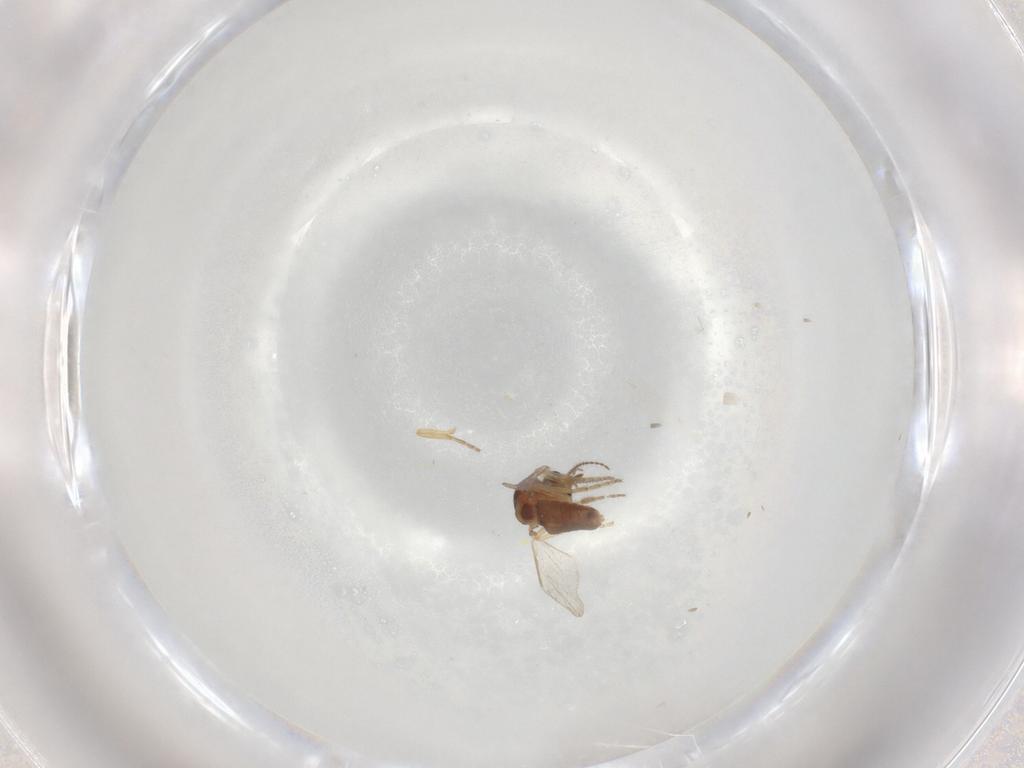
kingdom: Animalia
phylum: Arthropoda
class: Insecta
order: Diptera
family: Ceratopogonidae
